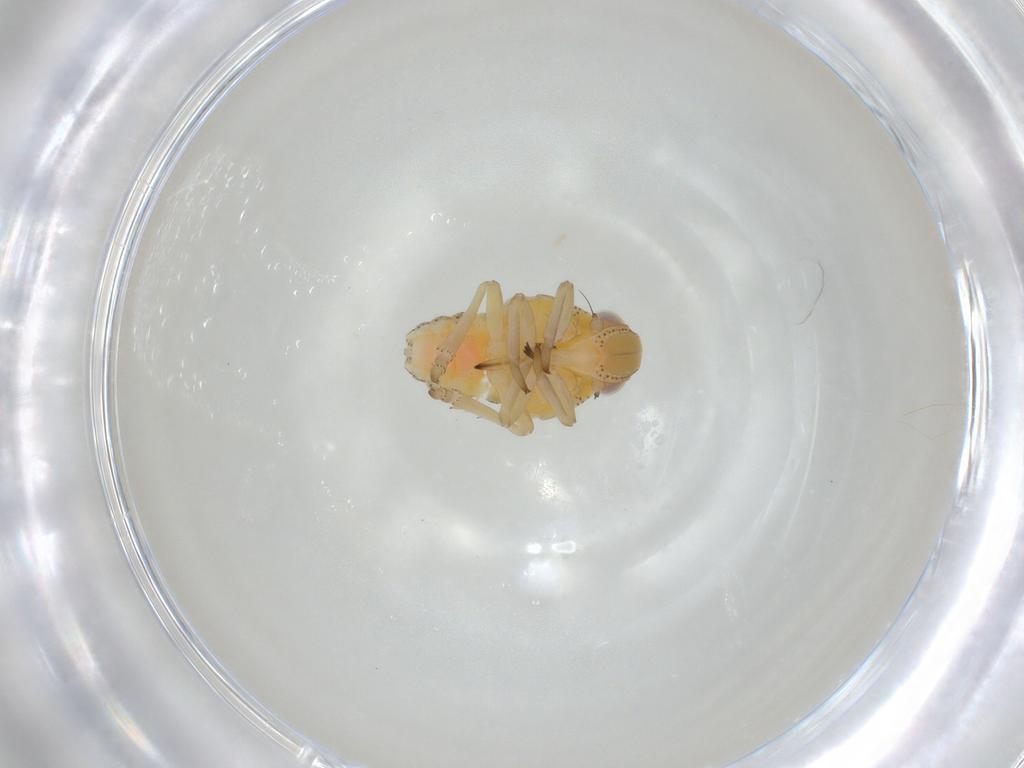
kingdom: Animalia
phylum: Arthropoda
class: Insecta
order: Hemiptera
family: Tropiduchidae
